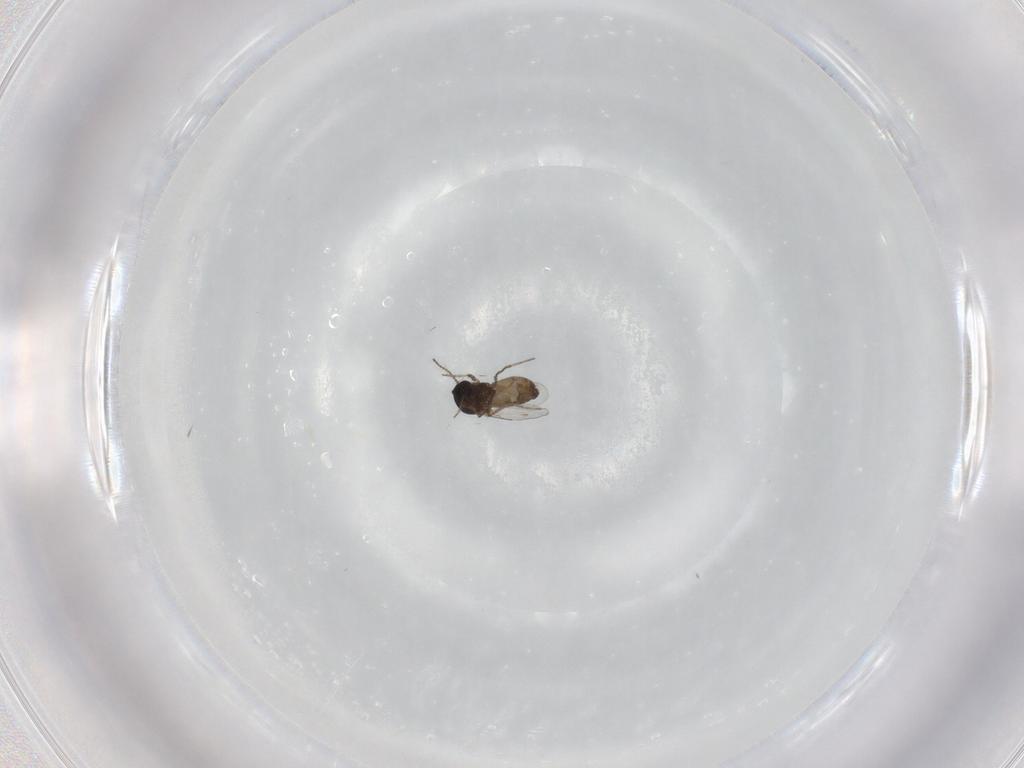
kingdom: Animalia
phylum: Arthropoda
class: Insecta
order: Diptera
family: Ceratopogonidae
